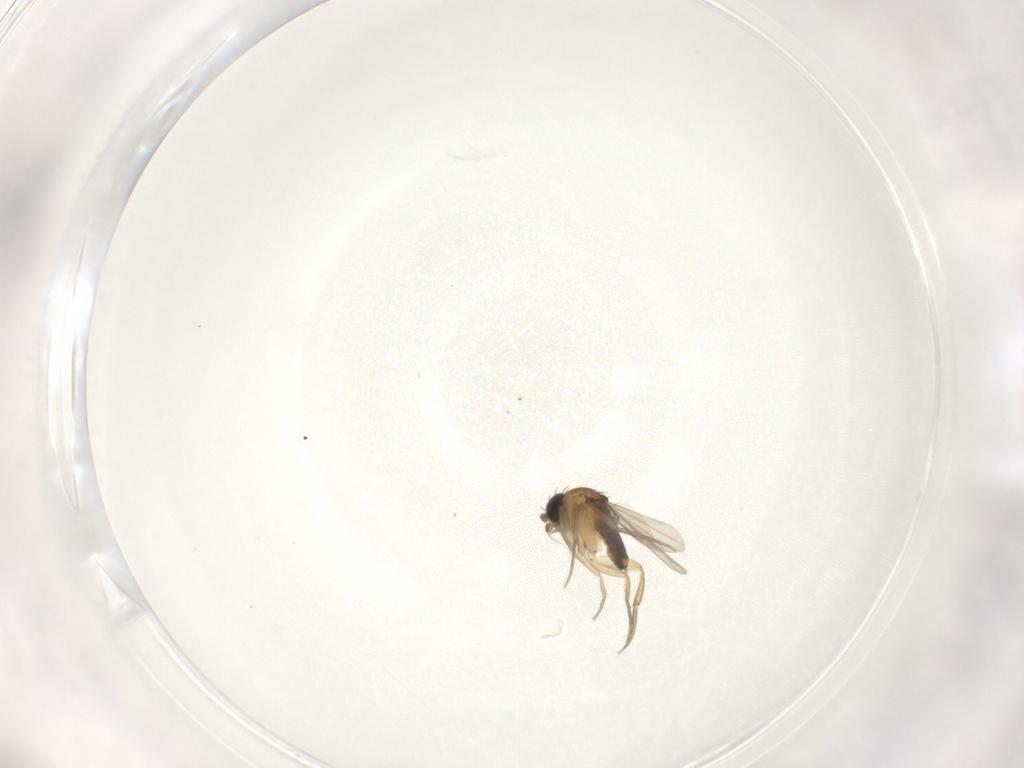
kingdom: Animalia
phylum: Arthropoda
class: Insecta
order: Diptera
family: Phoridae
